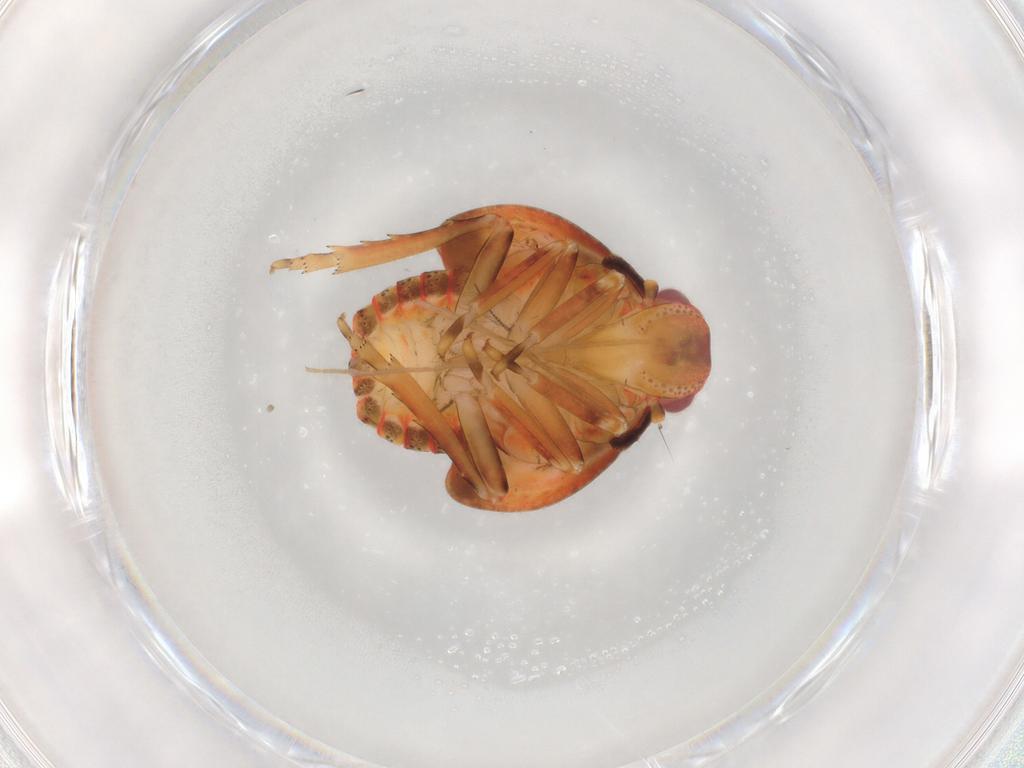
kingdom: Animalia
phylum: Arthropoda
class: Insecta
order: Hemiptera
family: Flatidae
